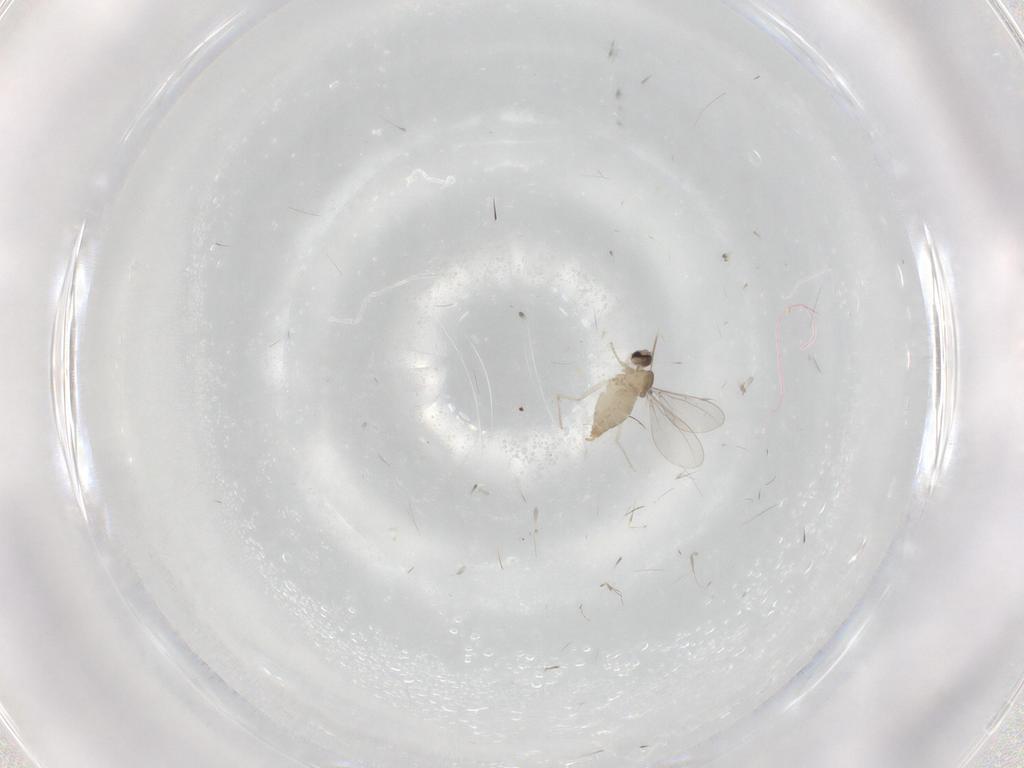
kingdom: Animalia
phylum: Arthropoda
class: Insecta
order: Diptera
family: Cecidomyiidae
